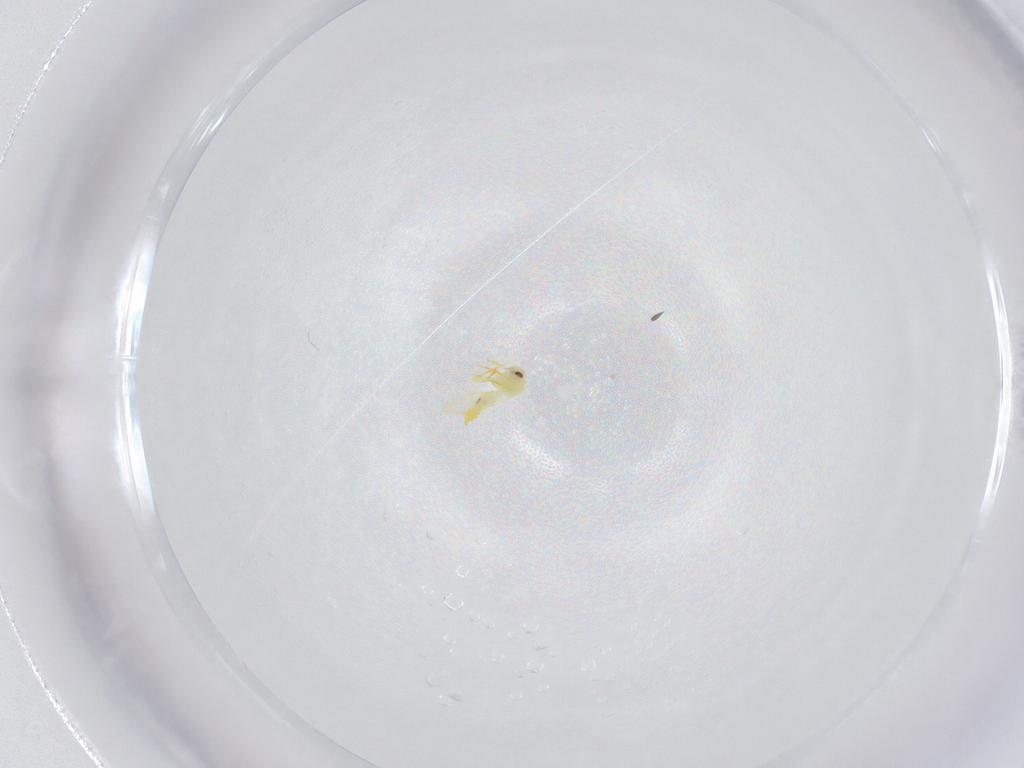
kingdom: Animalia
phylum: Arthropoda
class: Insecta
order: Hemiptera
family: Aleyrodidae
